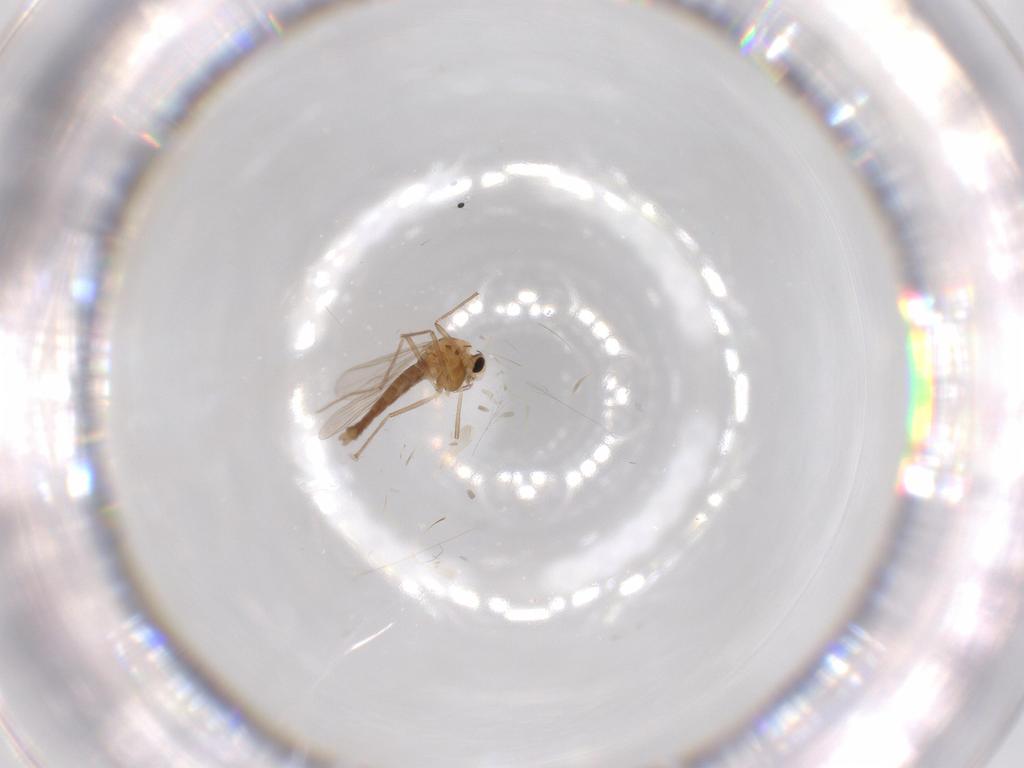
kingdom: Animalia
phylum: Arthropoda
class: Insecta
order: Diptera
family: Chironomidae
